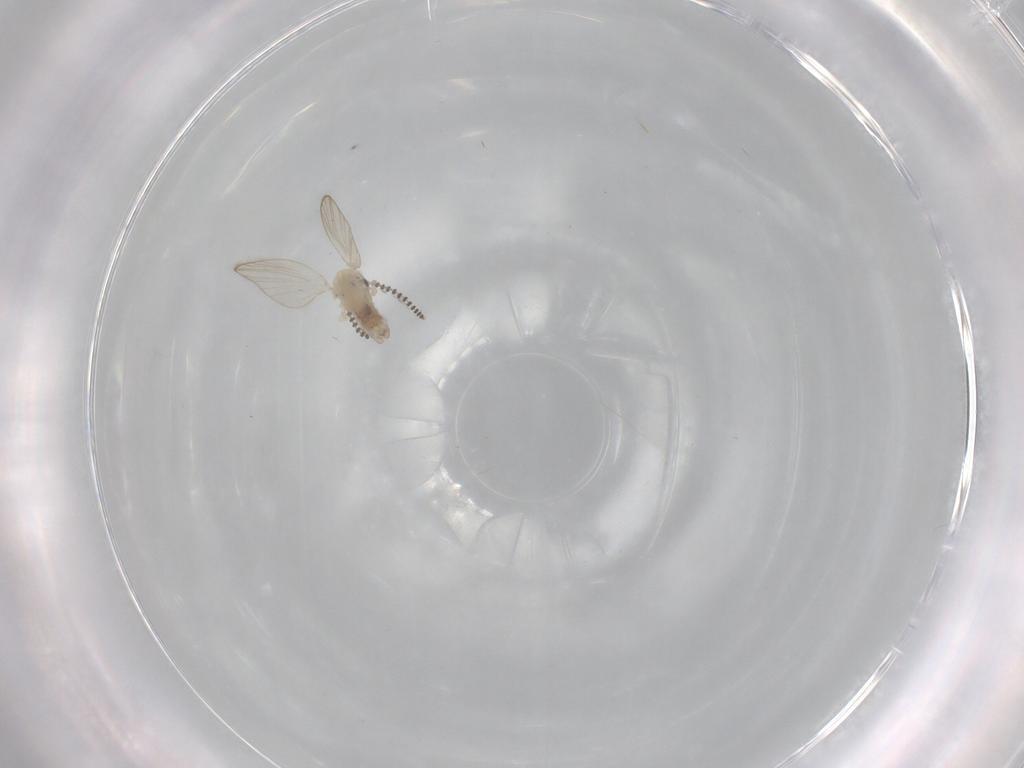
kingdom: Animalia
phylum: Arthropoda
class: Insecta
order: Diptera
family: Psychodidae
